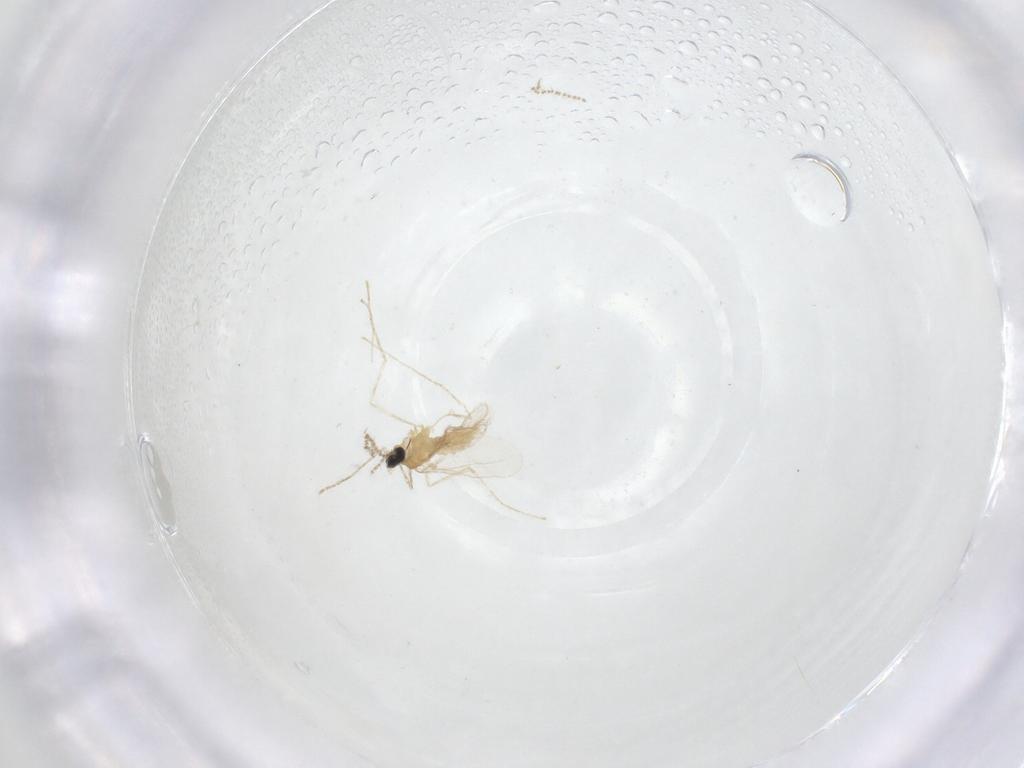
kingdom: Animalia
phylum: Arthropoda
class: Insecta
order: Diptera
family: Cecidomyiidae
